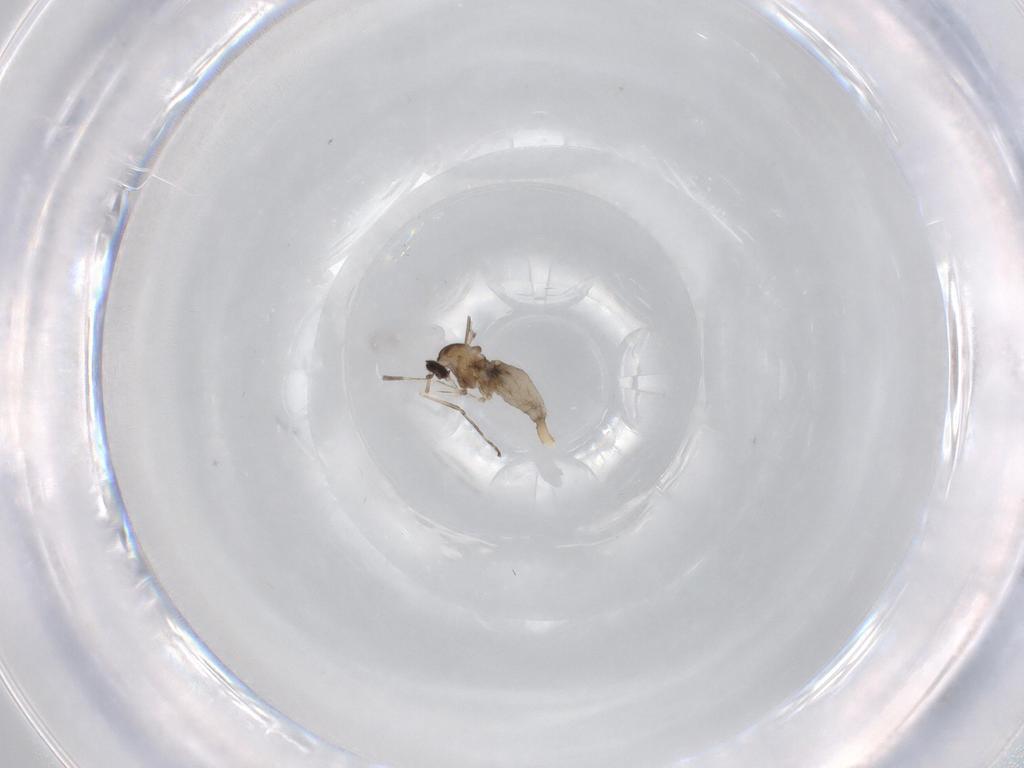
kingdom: Animalia
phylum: Arthropoda
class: Insecta
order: Diptera
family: Cecidomyiidae
